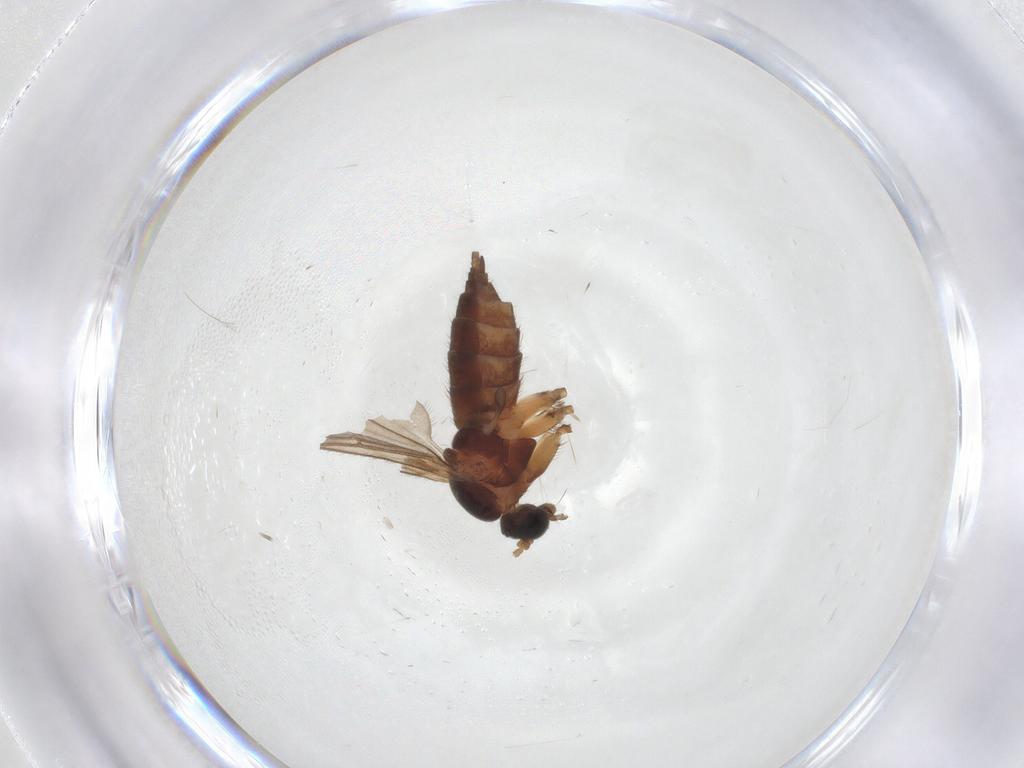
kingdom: Animalia
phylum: Arthropoda
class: Insecta
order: Diptera
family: Sciaridae
